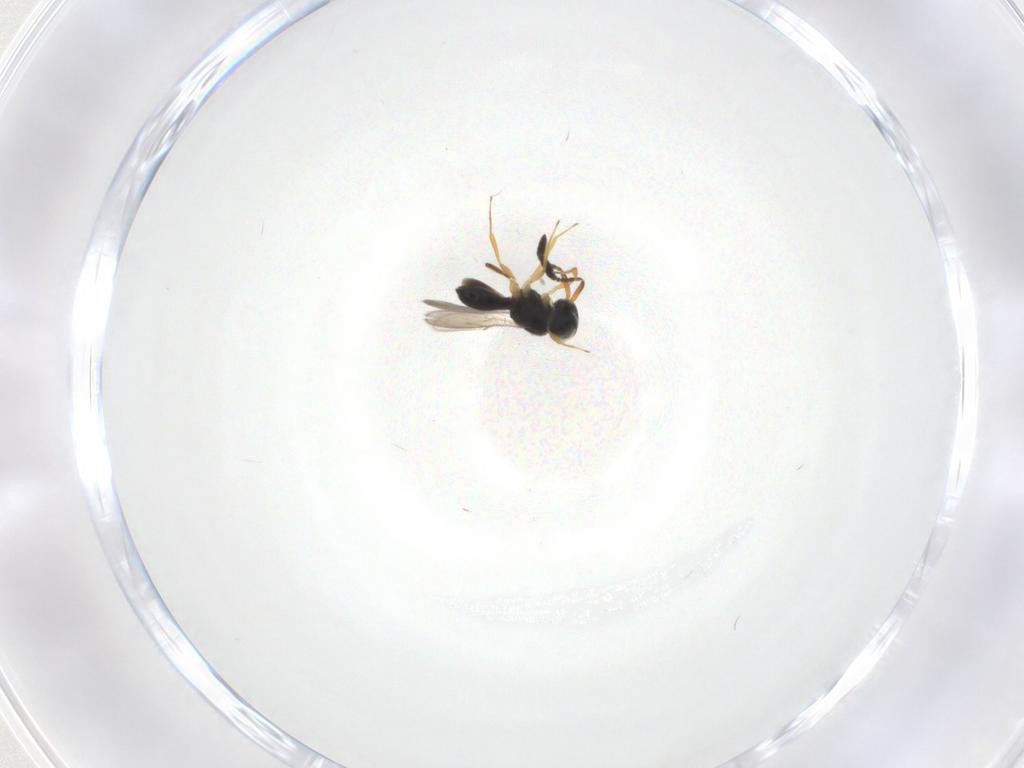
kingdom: Animalia
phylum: Arthropoda
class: Insecta
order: Hymenoptera
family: Scelionidae
